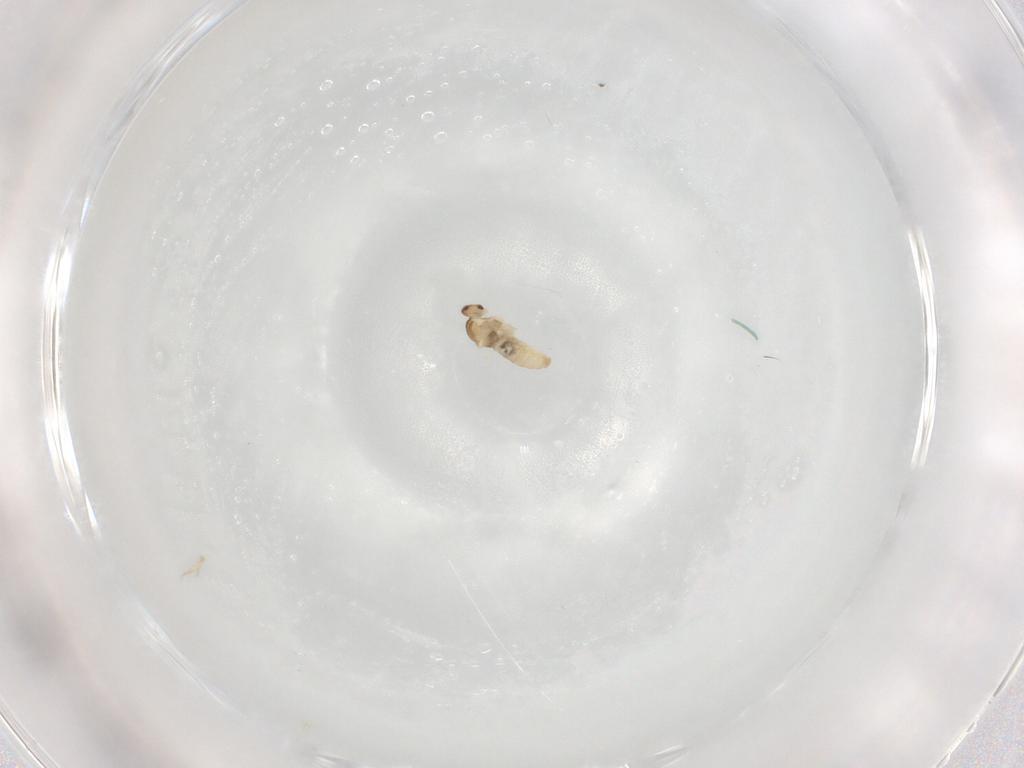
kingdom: Animalia
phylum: Arthropoda
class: Insecta
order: Diptera
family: Cecidomyiidae
